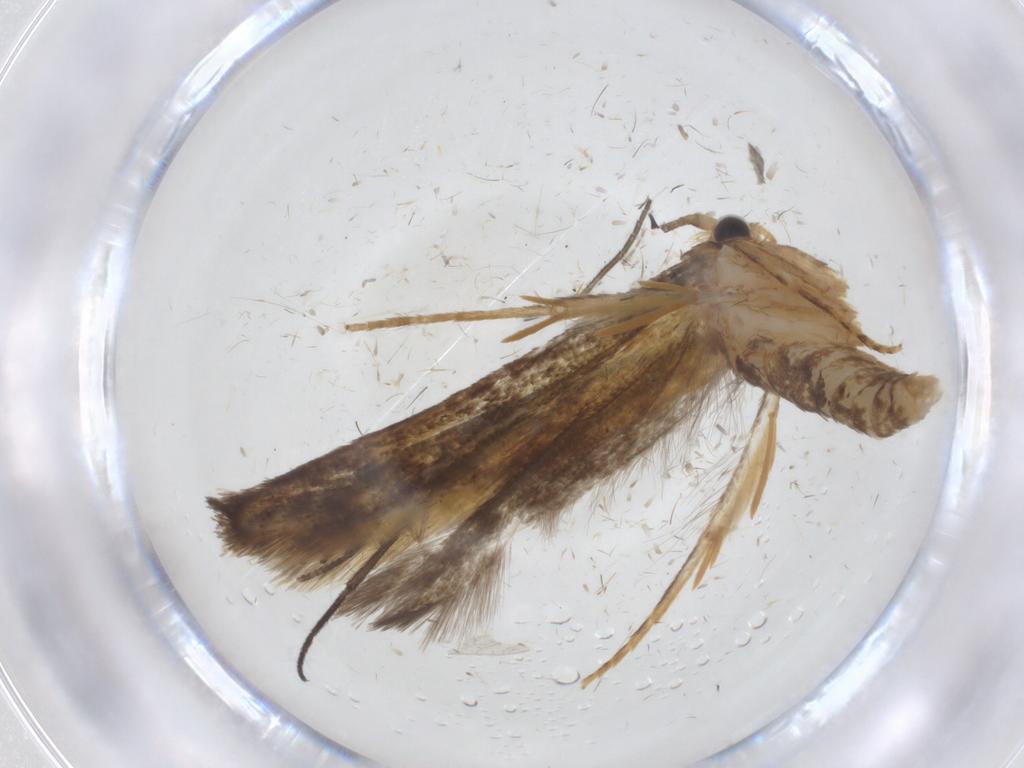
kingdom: Animalia
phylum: Arthropoda
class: Insecta
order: Lepidoptera
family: Tineidae
